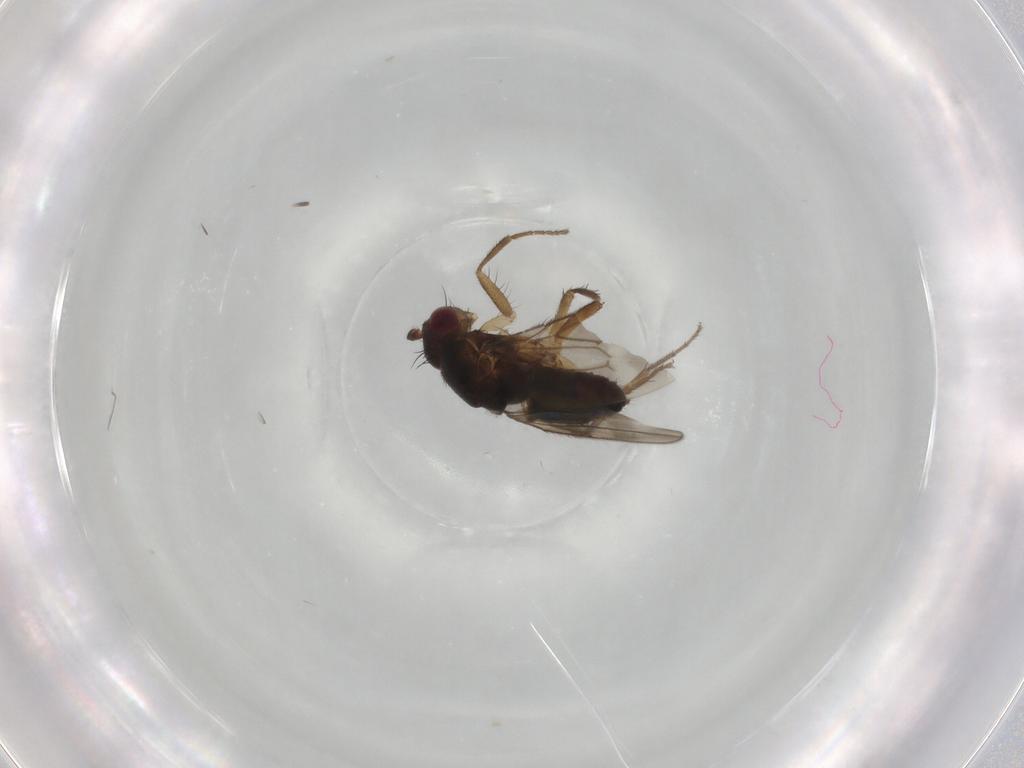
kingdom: Animalia
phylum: Arthropoda
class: Insecta
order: Diptera
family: Sphaeroceridae
